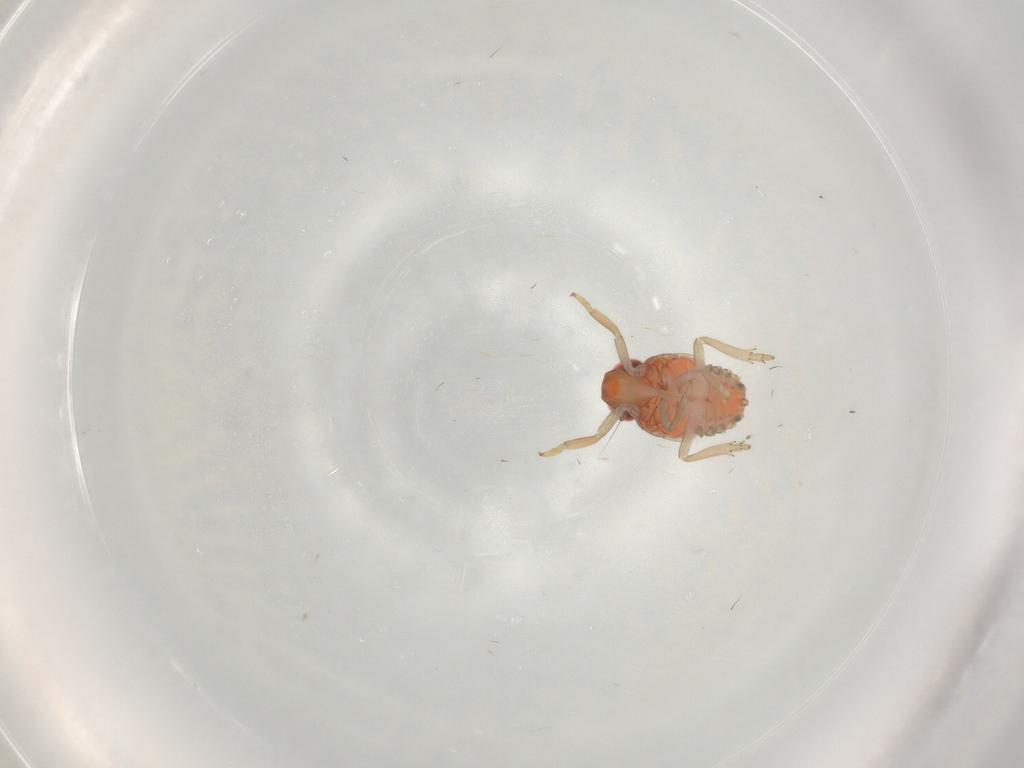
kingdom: Animalia
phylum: Arthropoda
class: Insecta
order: Hemiptera
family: Fulgoroidea_incertae_sedis
